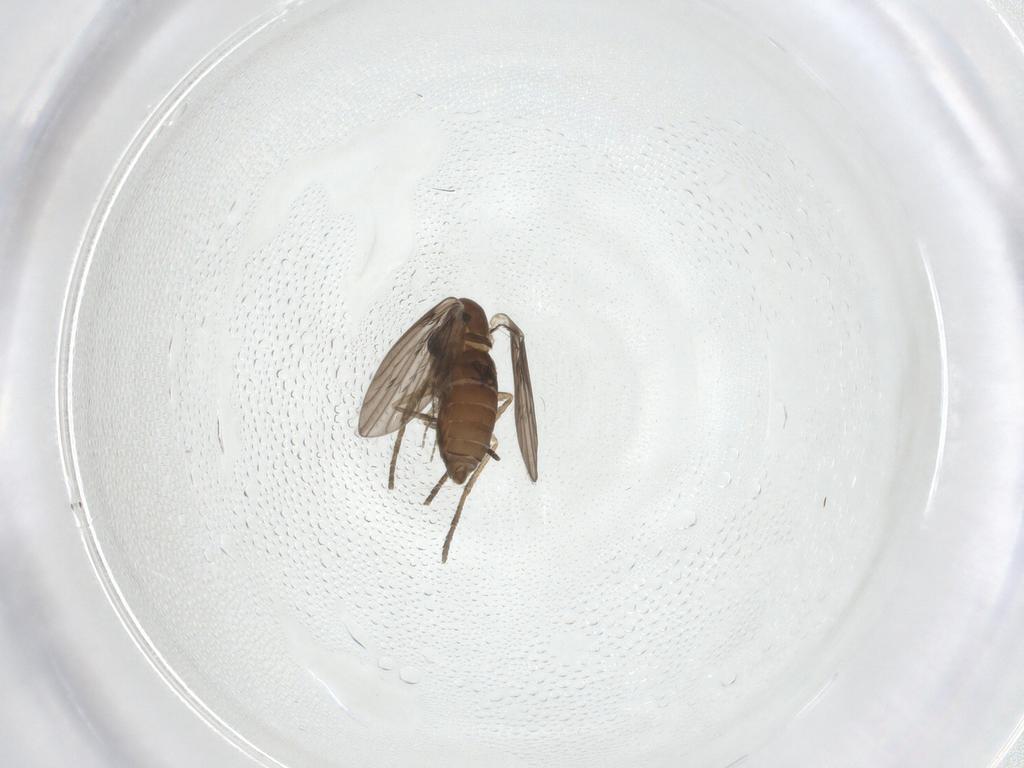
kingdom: Animalia
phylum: Arthropoda
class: Insecta
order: Diptera
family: Psychodidae
